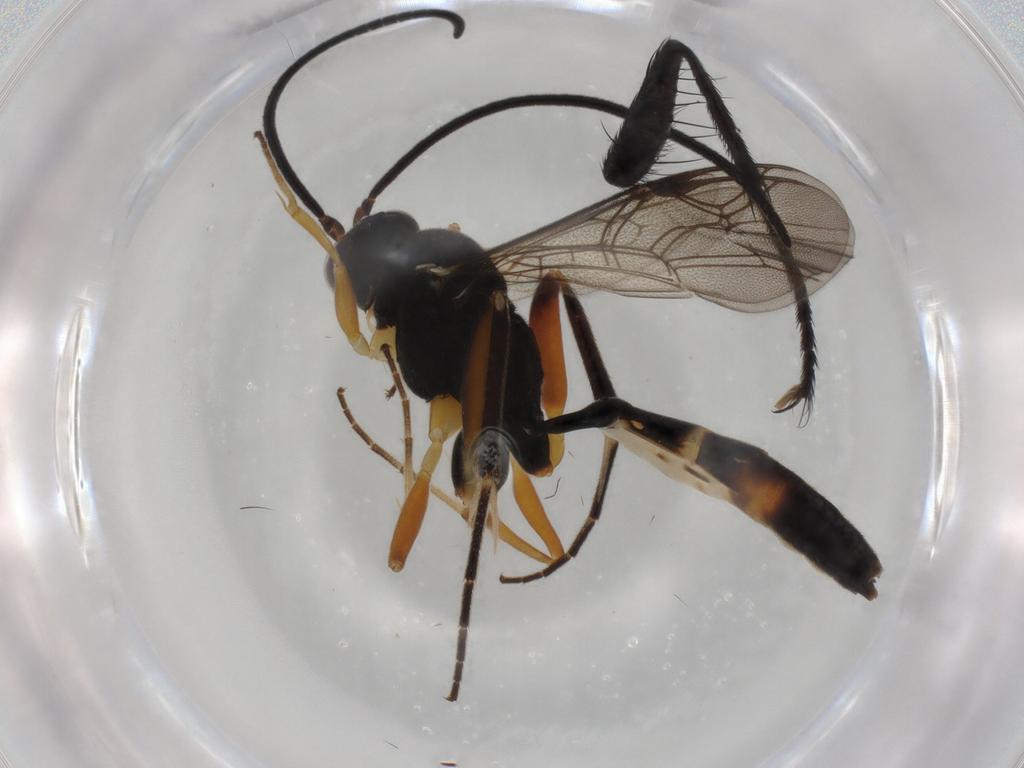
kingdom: Animalia
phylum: Arthropoda
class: Insecta
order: Hymenoptera
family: Ichneumonidae
